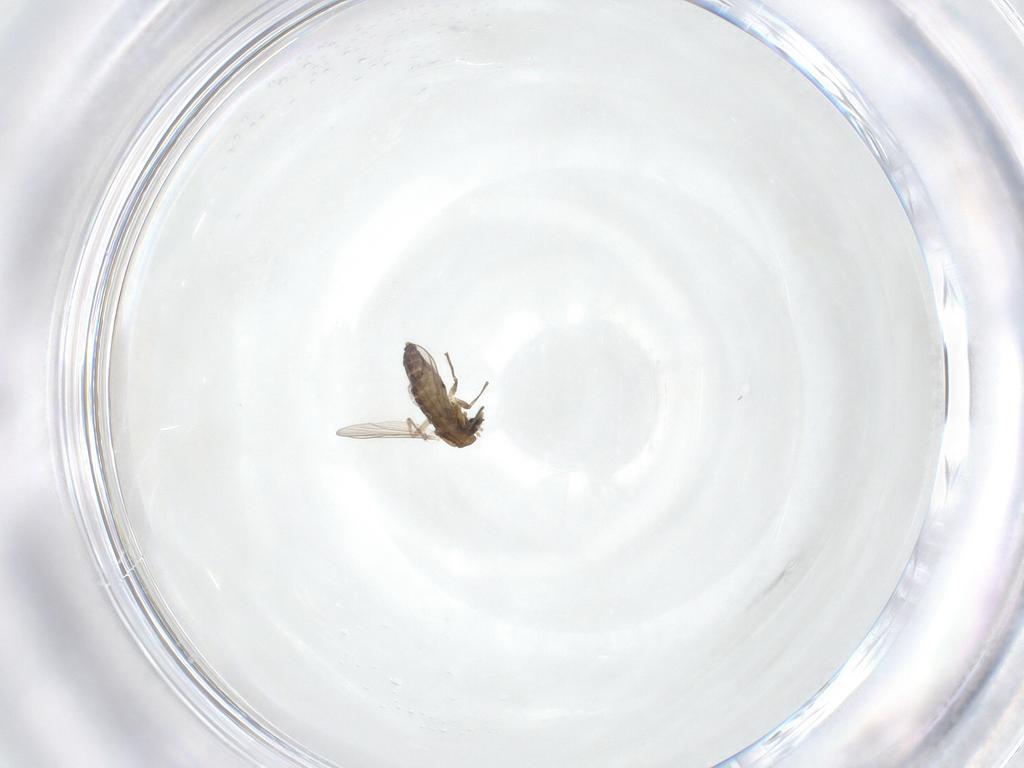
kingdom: Animalia
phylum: Arthropoda
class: Insecta
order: Diptera
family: Chironomidae
